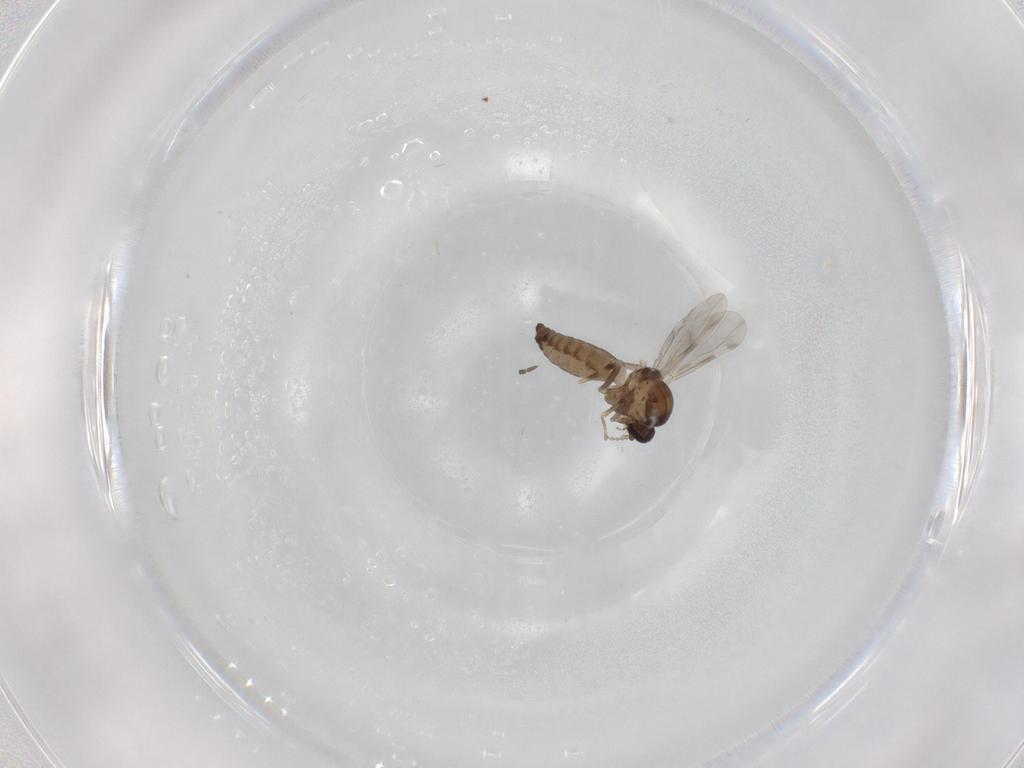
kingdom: Animalia
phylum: Arthropoda
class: Insecta
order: Diptera
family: Ceratopogonidae
